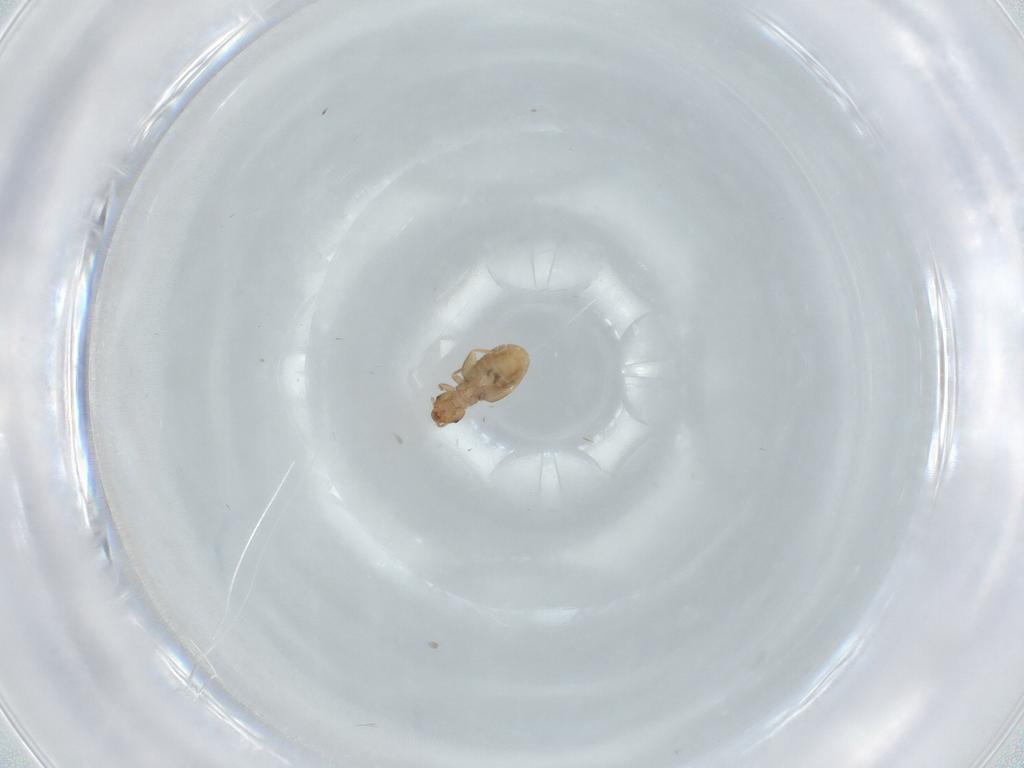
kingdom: Animalia
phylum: Arthropoda
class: Insecta
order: Psocodea
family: Liposcelididae
